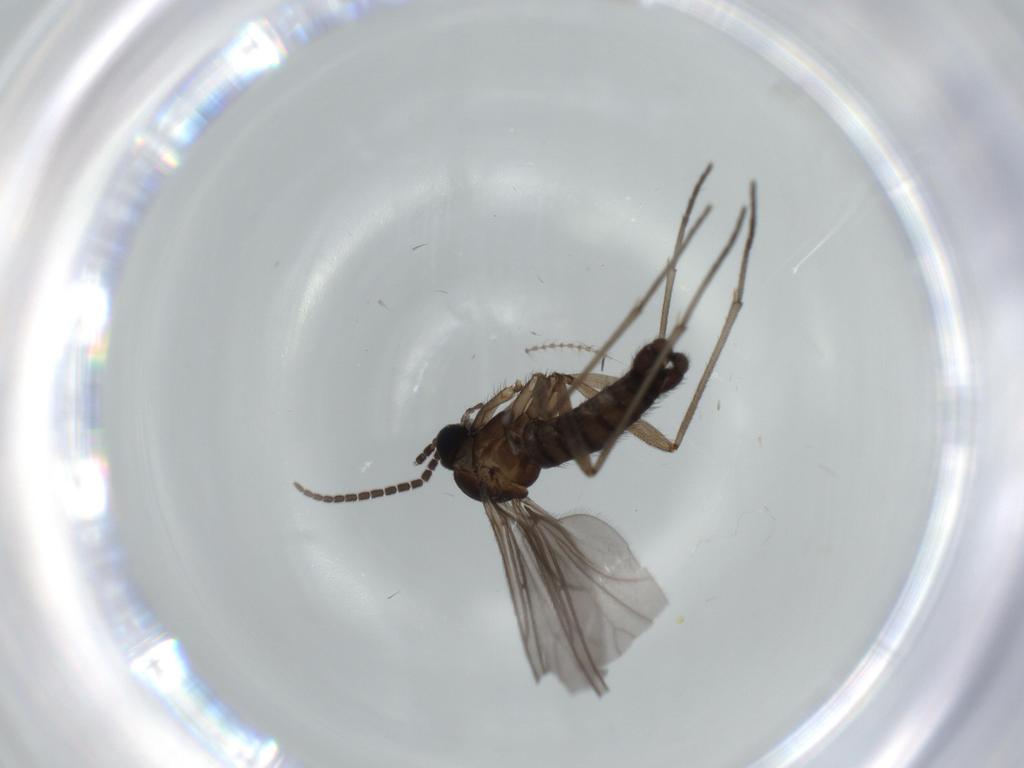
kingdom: Animalia
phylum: Arthropoda
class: Insecta
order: Diptera
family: Sciaridae
